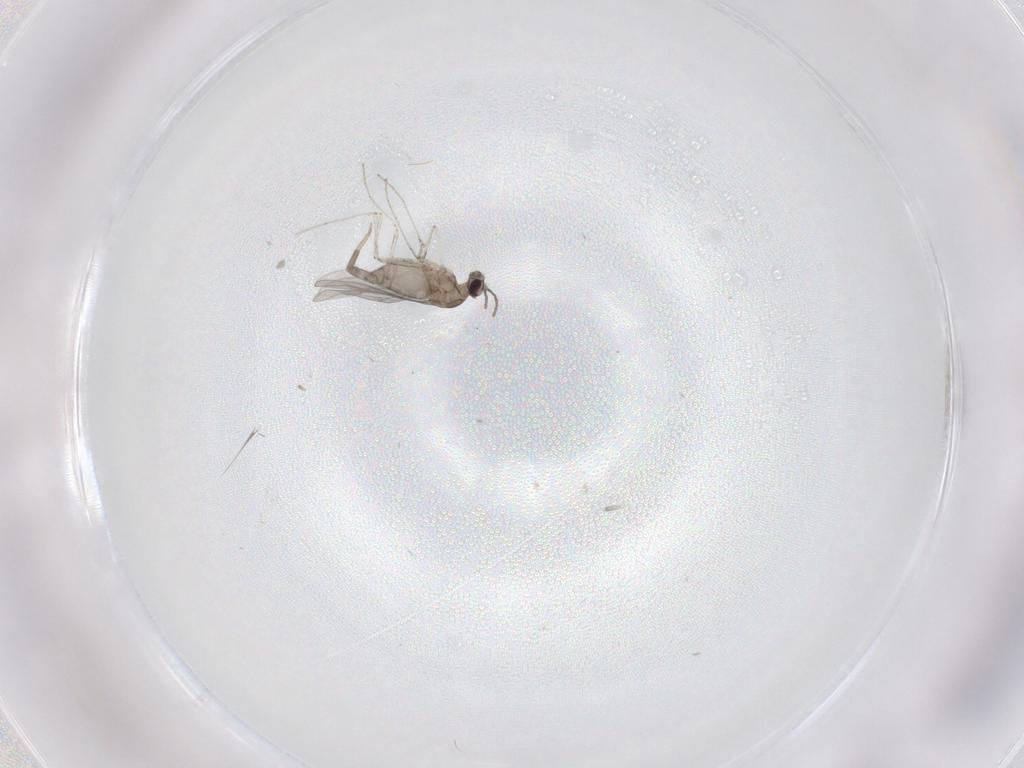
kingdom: Animalia
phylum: Arthropoda
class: Insecta
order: Diptera
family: Cecidomyiidae
